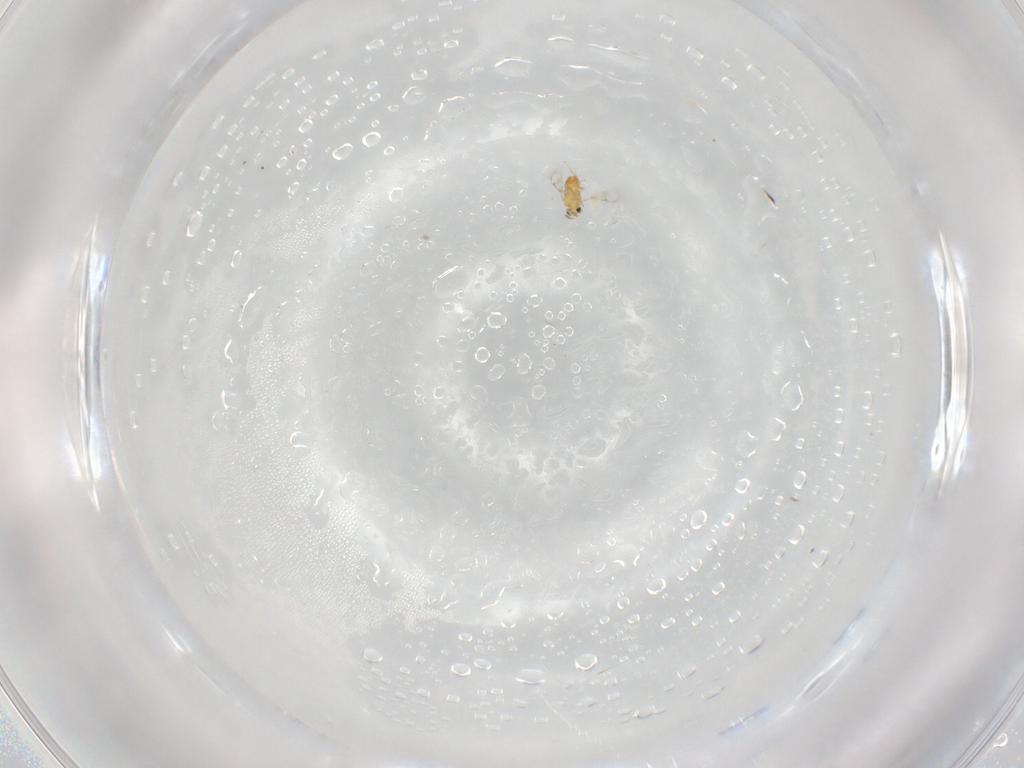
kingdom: Animalia
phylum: Arthropoda
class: Insecta
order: Hymenoptera
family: Trichogrammatidae
